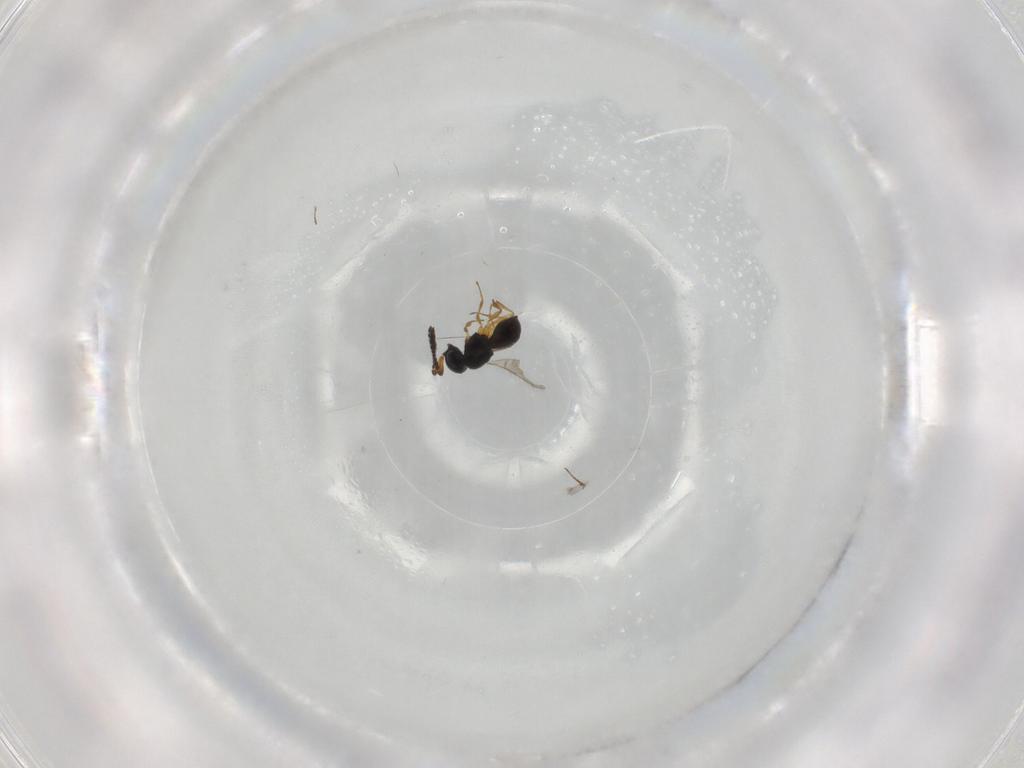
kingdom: Animalia
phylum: Arthropoda
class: Insecta
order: Hymenoptera
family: Scelionidae
